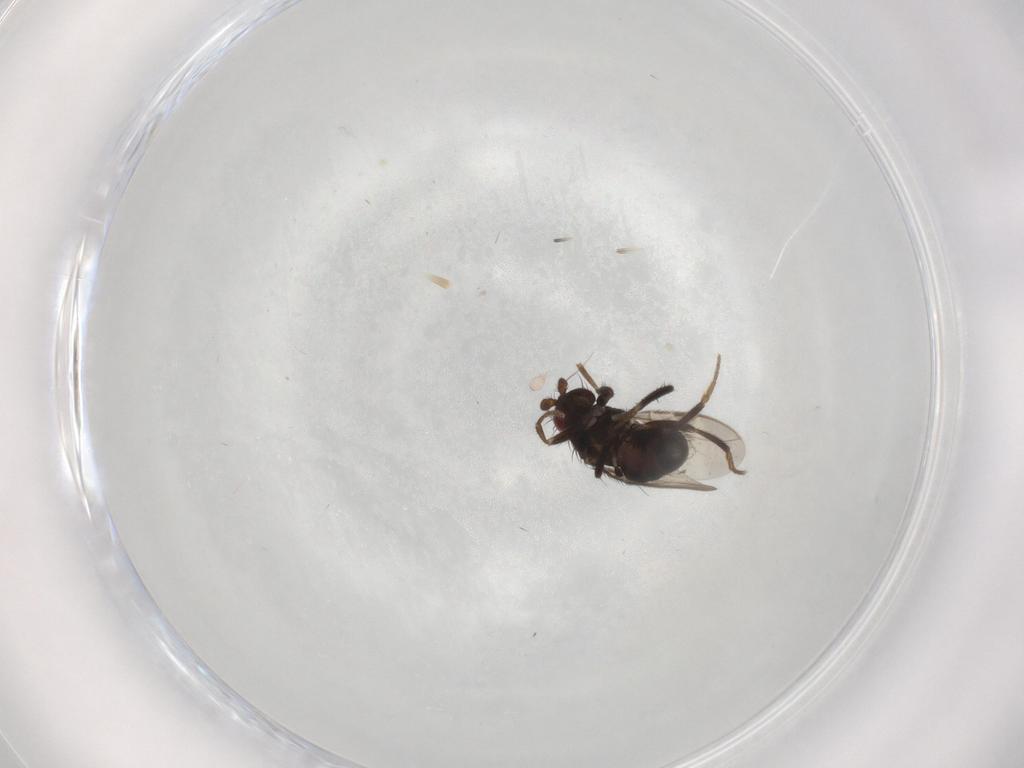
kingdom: Animalia
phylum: Arthropoda
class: Insecta
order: Diptera
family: Sphaeroceridae
